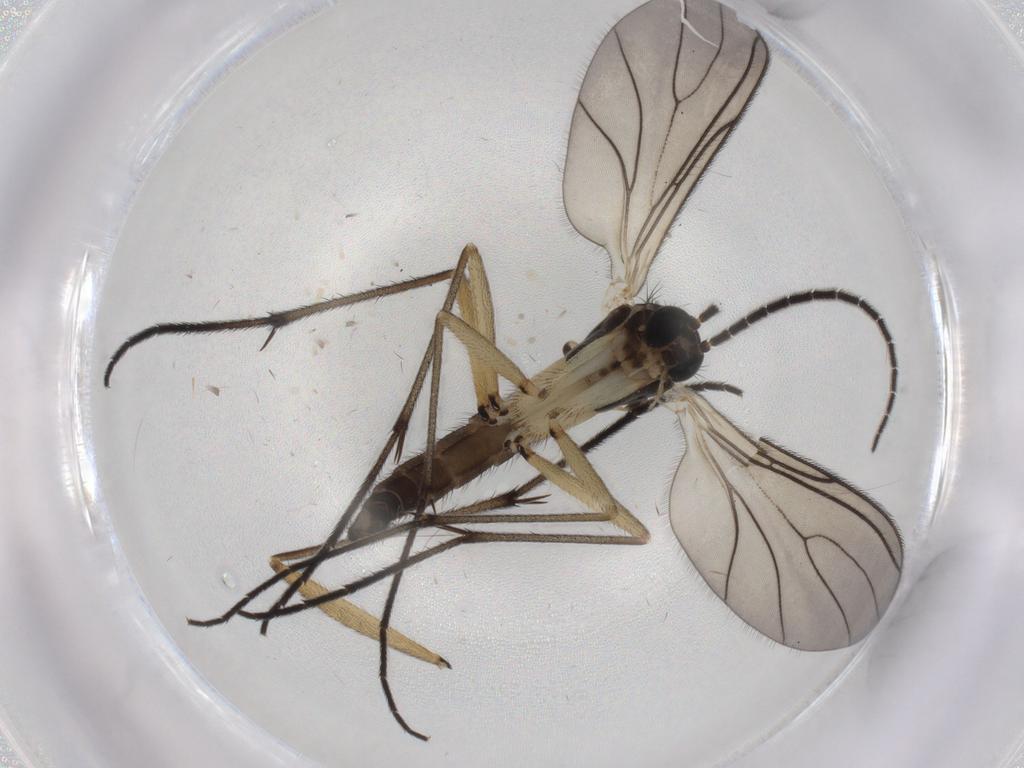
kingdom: Animalia
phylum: Arthropoda
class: Insecta
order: Diptera
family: Sciaridae
